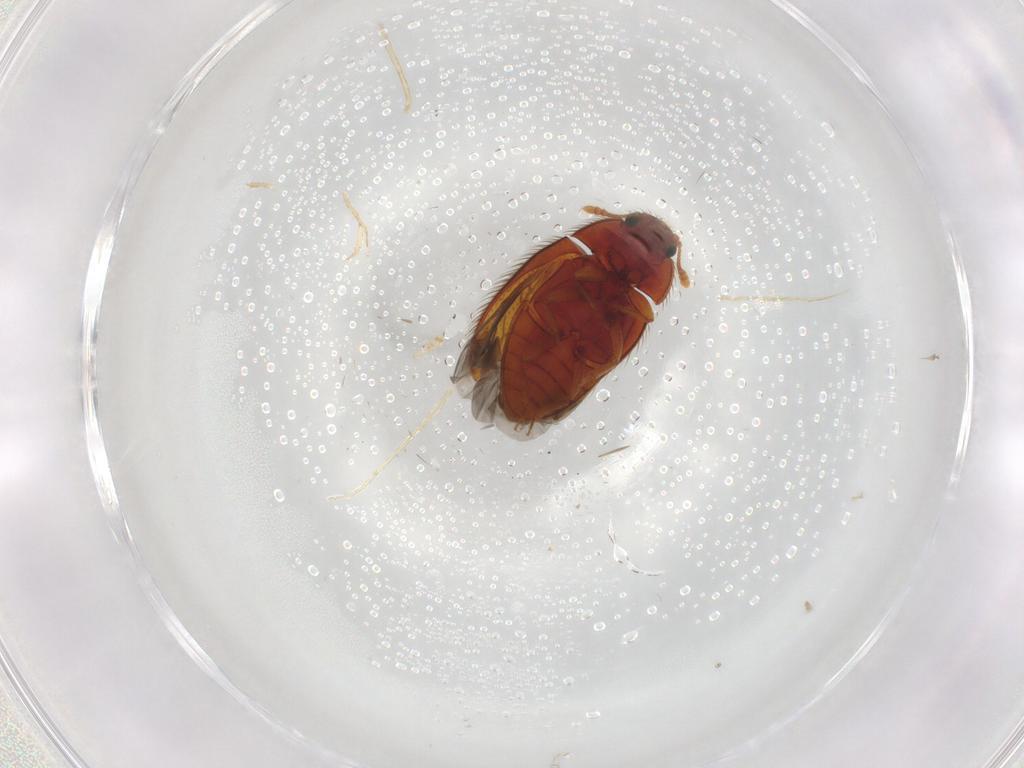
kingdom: Animalia
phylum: Arthropoda
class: Insecta
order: Coleoptera
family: Biphyllidae
